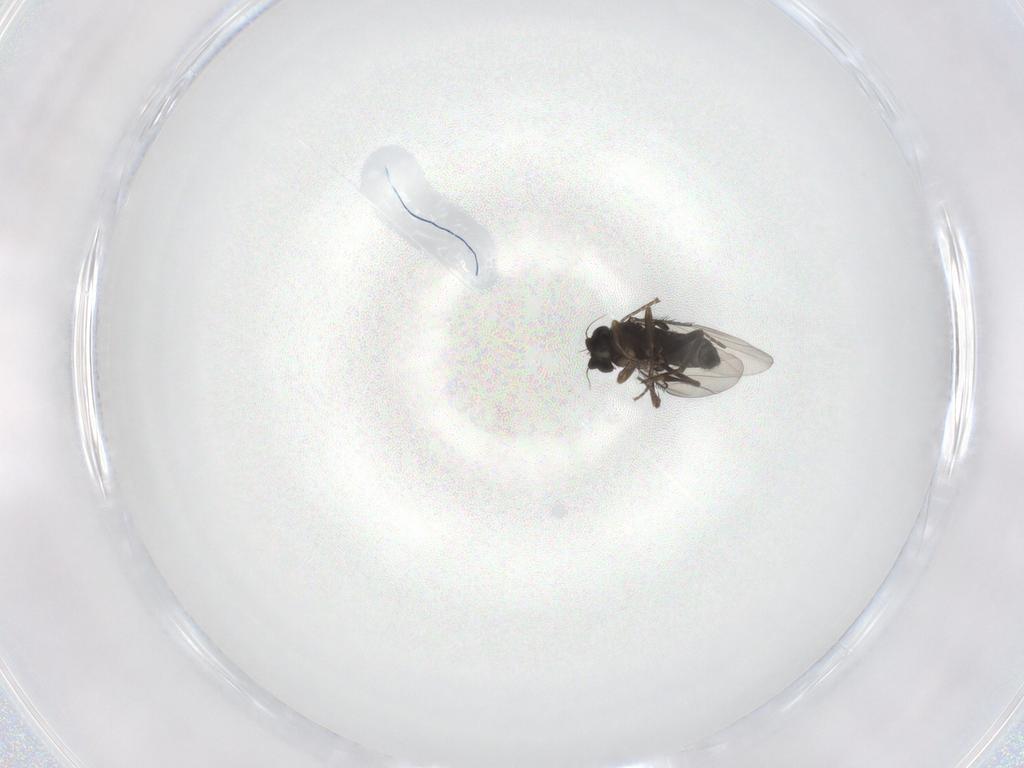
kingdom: Animalia
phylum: Arthropoda
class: Insecta
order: Diptera
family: Phoridae
